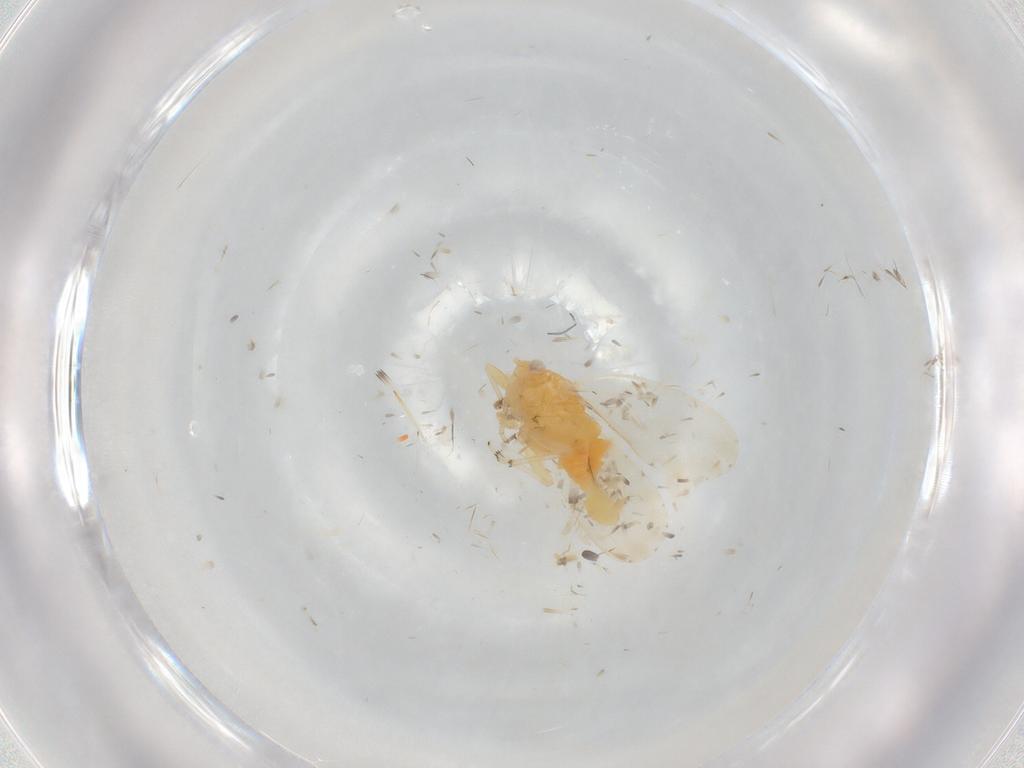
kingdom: Animalia
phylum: Arthropoda
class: Insecta
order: Hemiptera
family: Psyllidae
